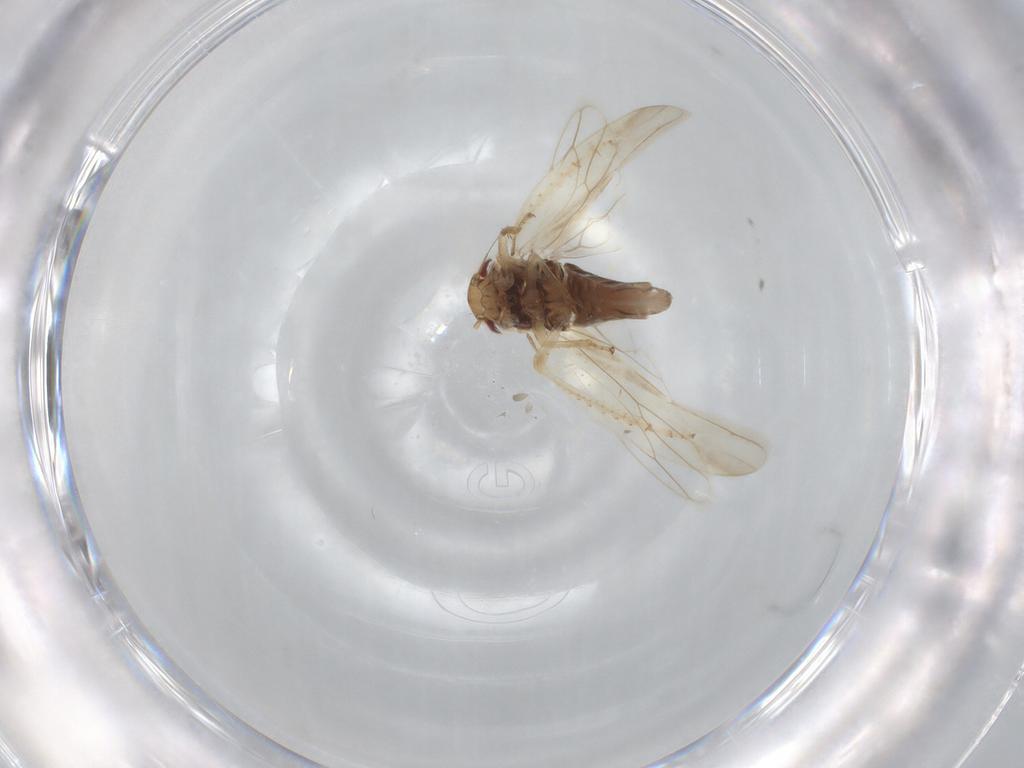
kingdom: Animalia
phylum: Arthropoda
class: Insecta
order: Hemiptera
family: Cicadellidae
